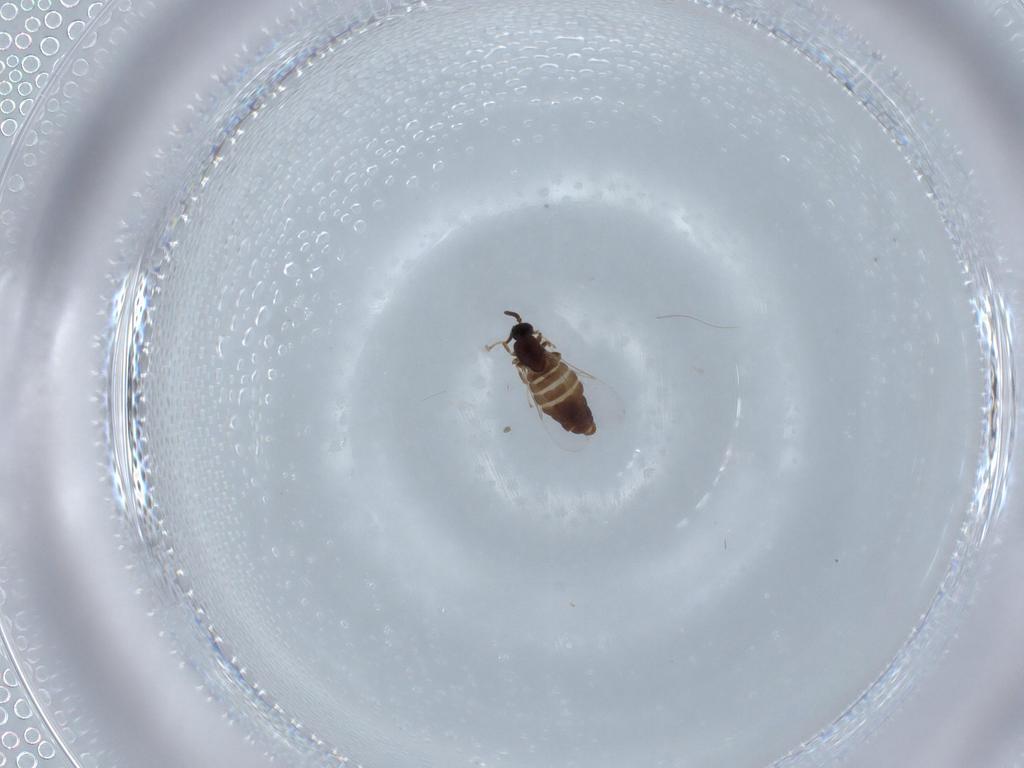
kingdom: Animalia
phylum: Arthropoda
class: Insecta
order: Diptera
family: Scatopsidae
